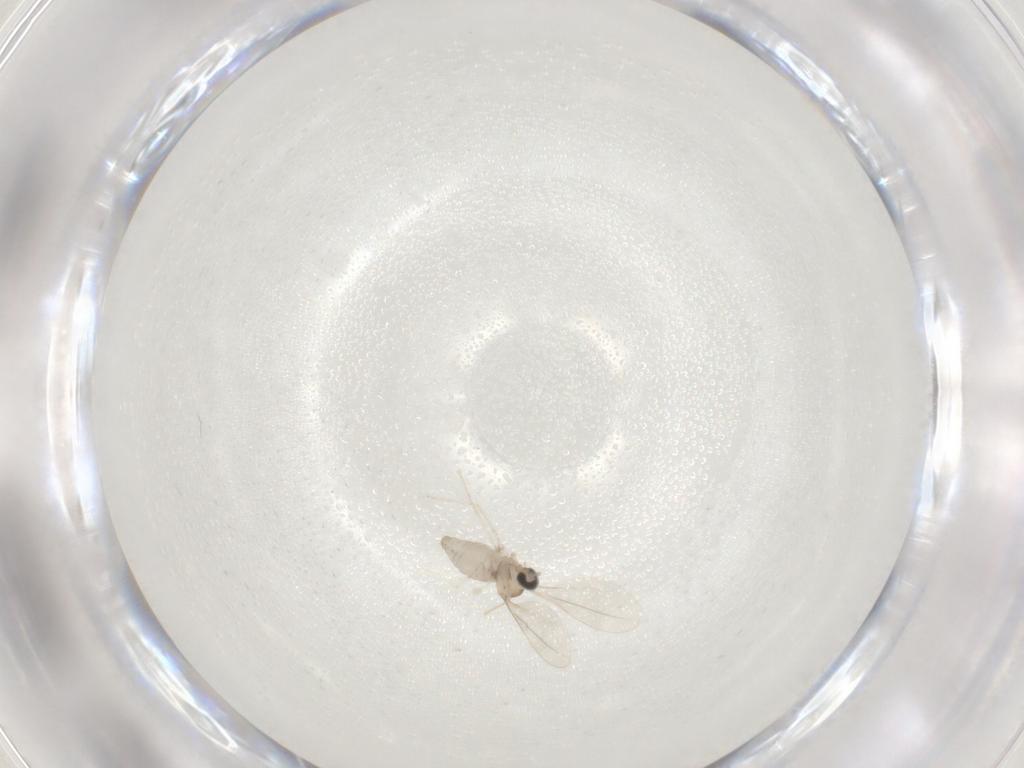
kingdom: Animalia
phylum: Arthropoda
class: Insecta
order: Diptera
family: Cecidomyiidae
